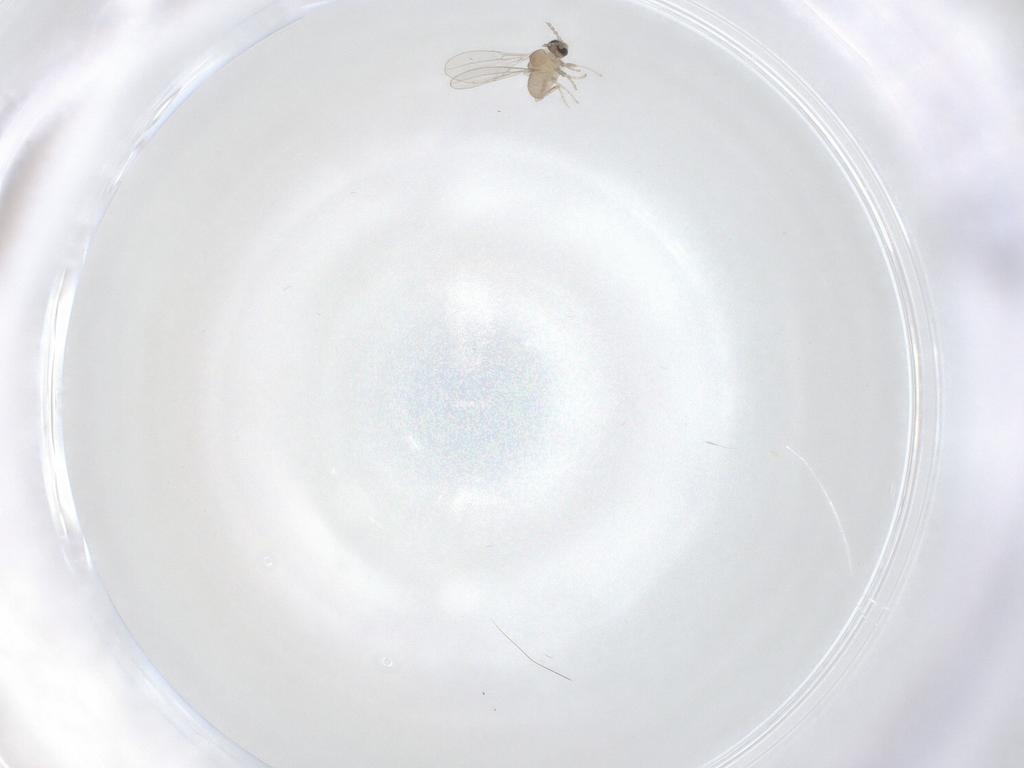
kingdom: Animalia
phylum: Arthropoda
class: Insecta
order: Diptera
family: Cecidomyiidae
